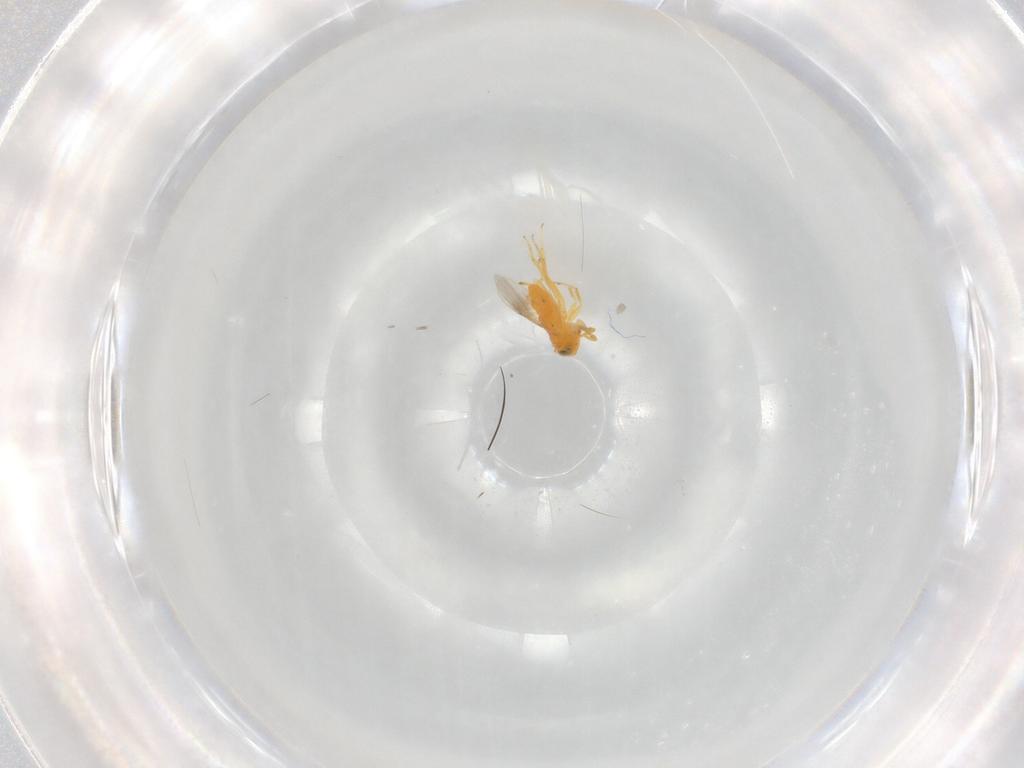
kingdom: Animalia
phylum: Arthropoda
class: Insecta
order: Hymenoptera
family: Encyrtidae
